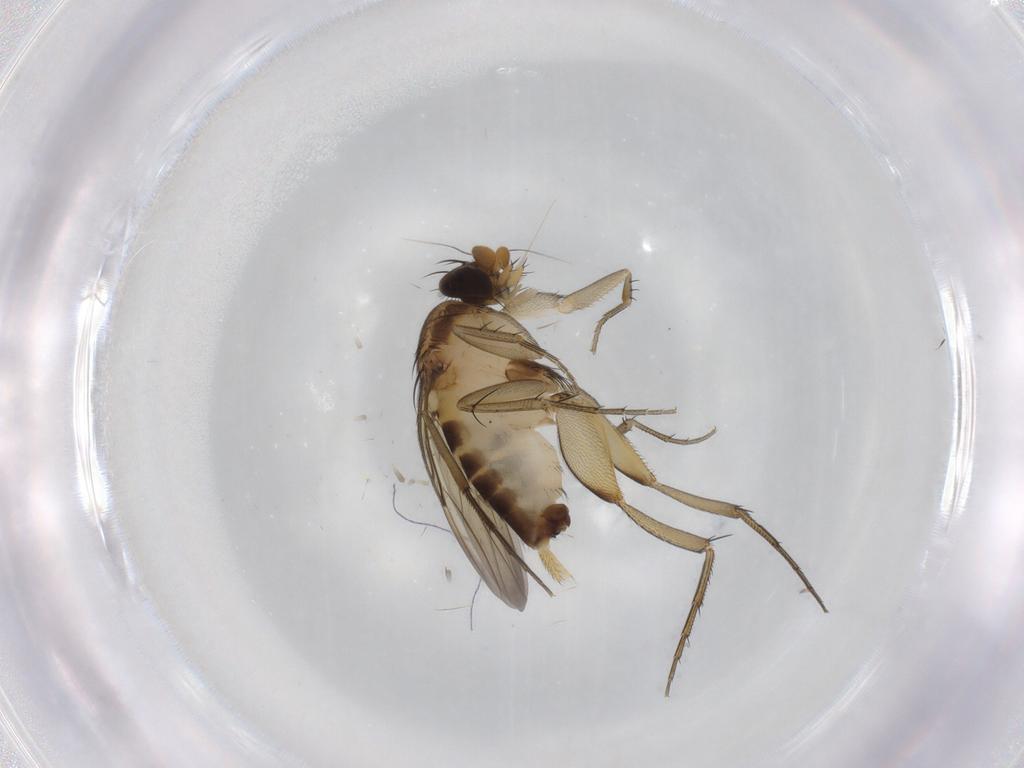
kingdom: Animalia
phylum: Arthropoda
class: Insecta
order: Diptera
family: Phoridae
